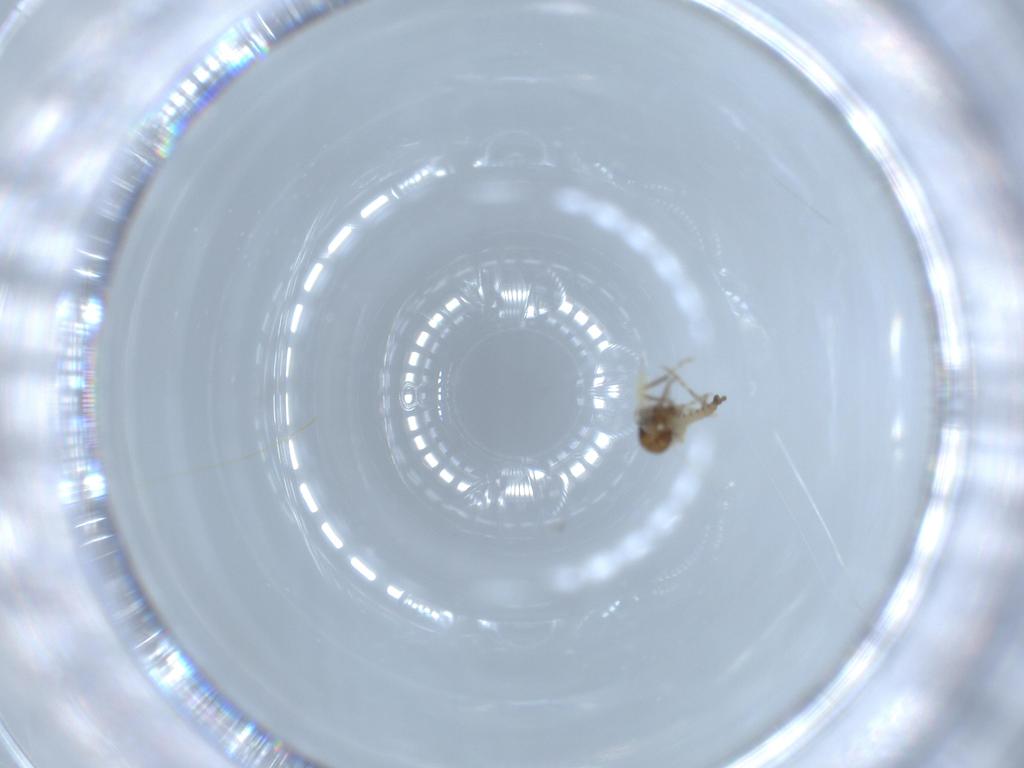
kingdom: Animalia
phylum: Arthropoda
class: Insecta
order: Diptera
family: Ceratopogonidae
